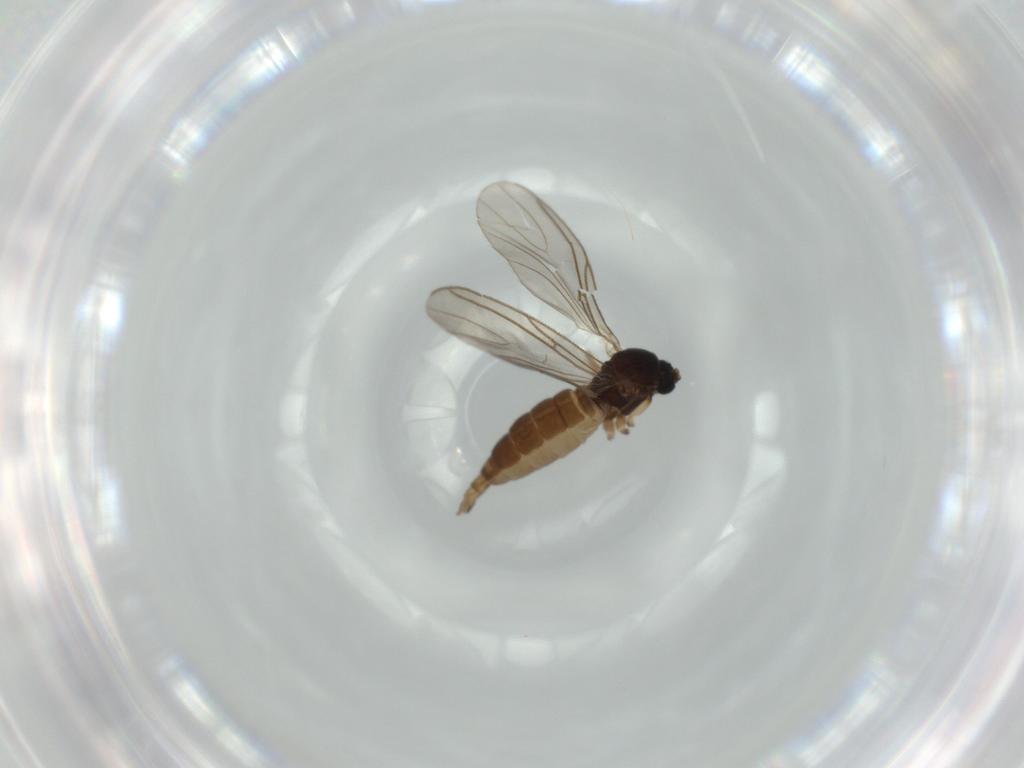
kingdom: Animalia
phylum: Arthropoda
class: Insecta
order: Diptera
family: Sciaridae
